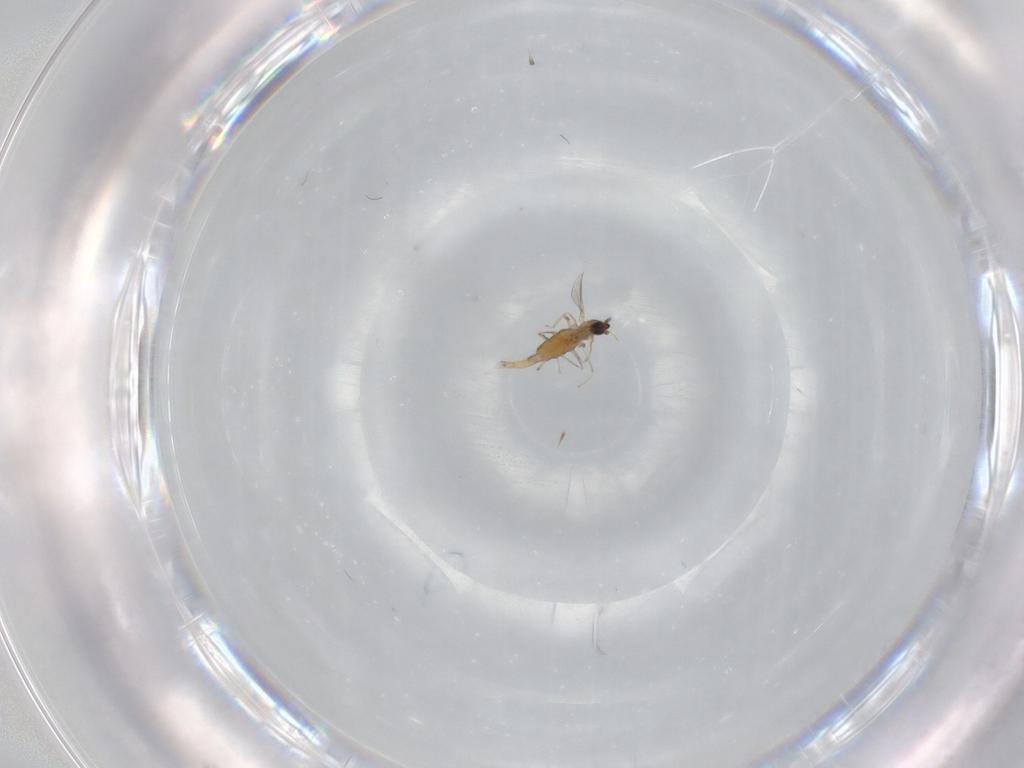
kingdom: Animalia
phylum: Arthropoda
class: Insecta
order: Diptera
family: Cecidomyiidae
